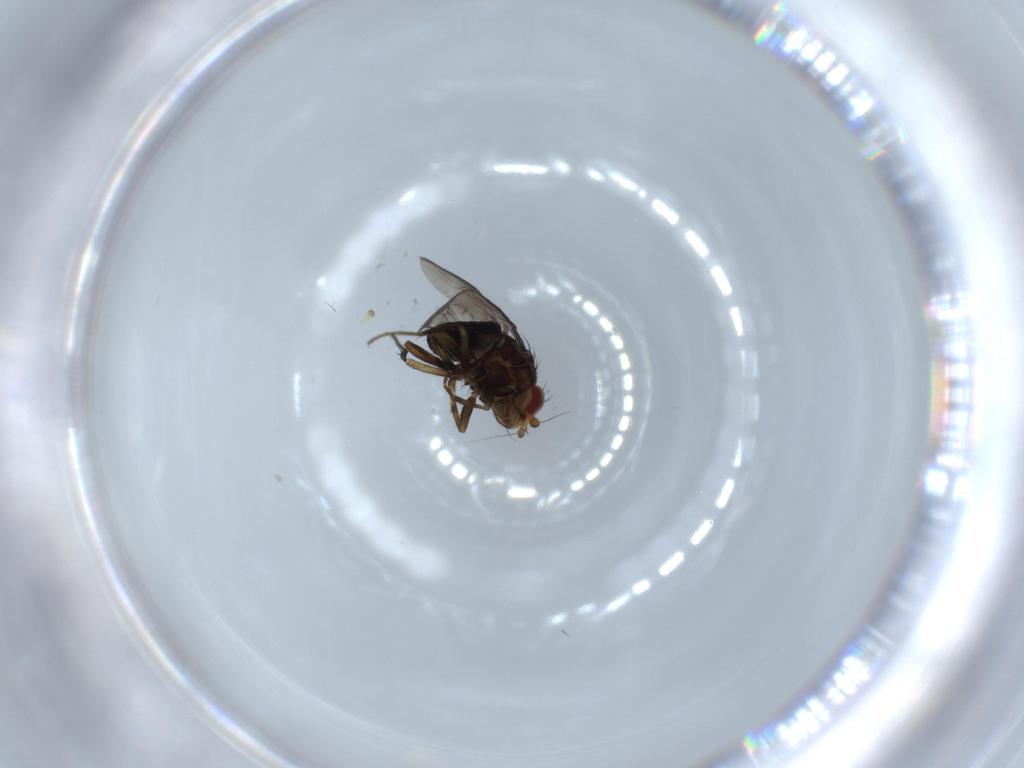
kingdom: Animalia
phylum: Arthropoda
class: Insecta
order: Diptera
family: Sphaeroceridae
